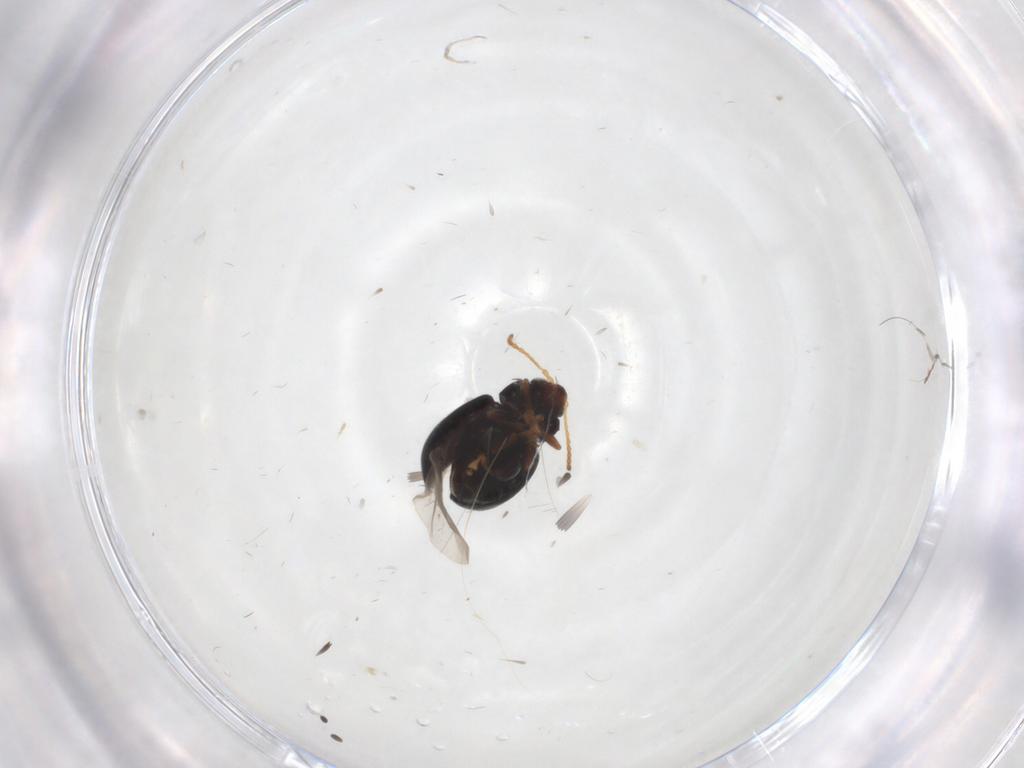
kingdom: Animalia
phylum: Arthropoda
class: Insecta
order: Coleoptera
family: Chrysomelidae
